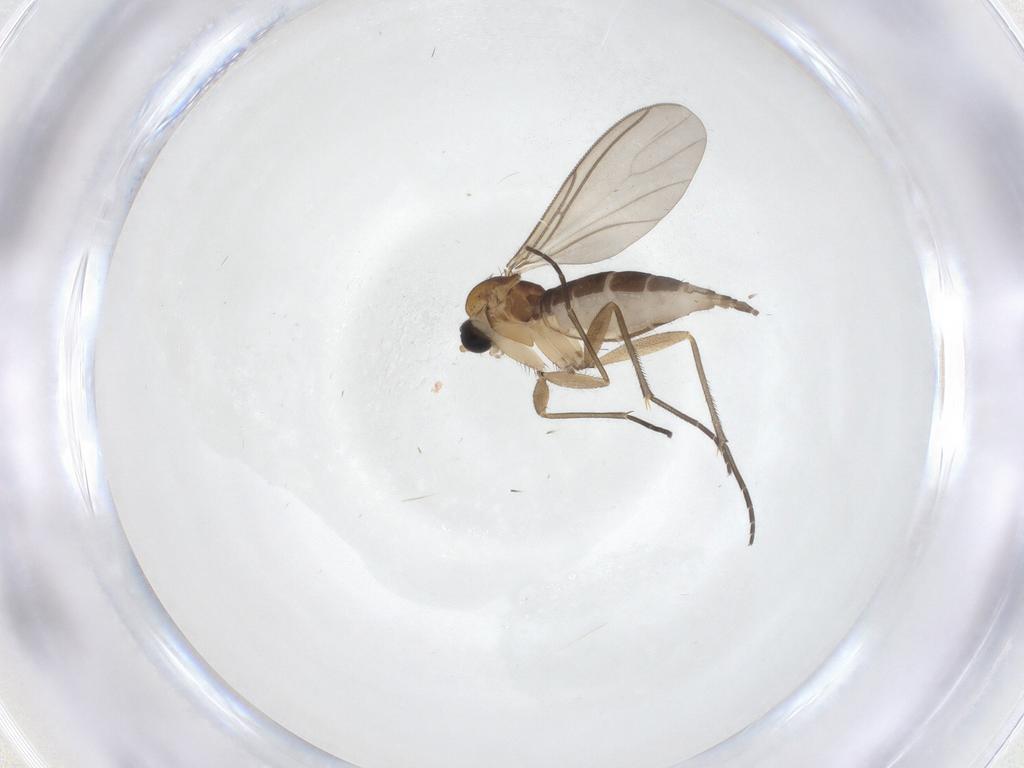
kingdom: Animalia
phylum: Arthropoda
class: Insecta
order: Diptera
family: Sciaridae
